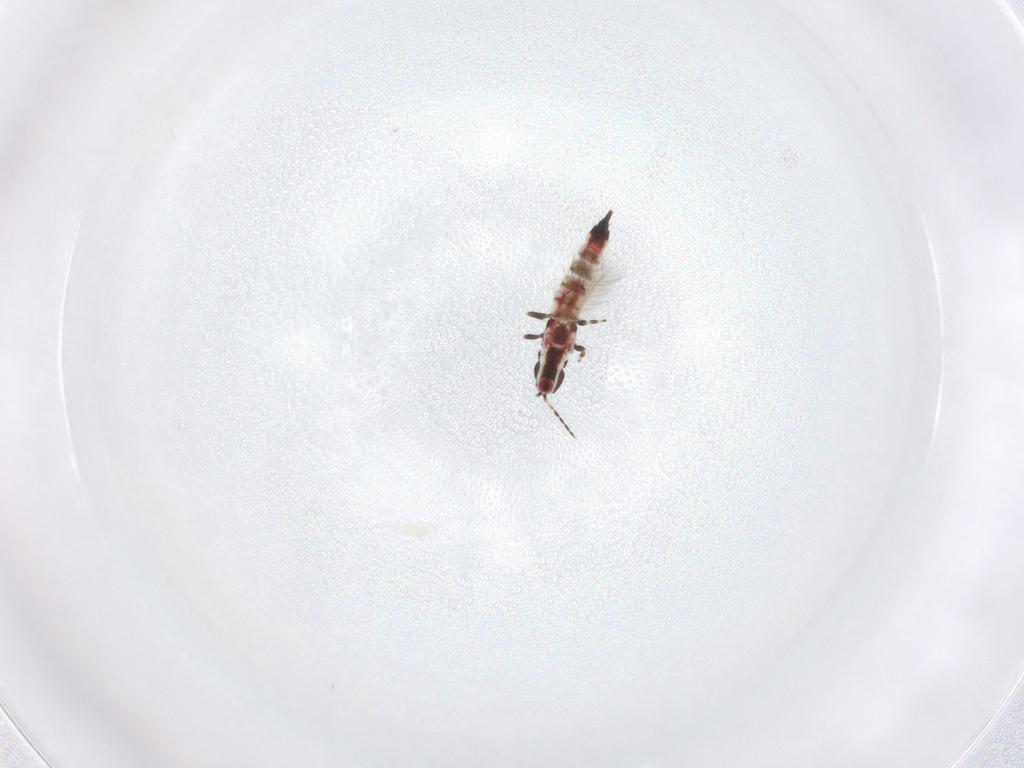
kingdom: Animalia
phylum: Arthropoda
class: Insecta
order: Thysanoptera
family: Phlaeothripidae
